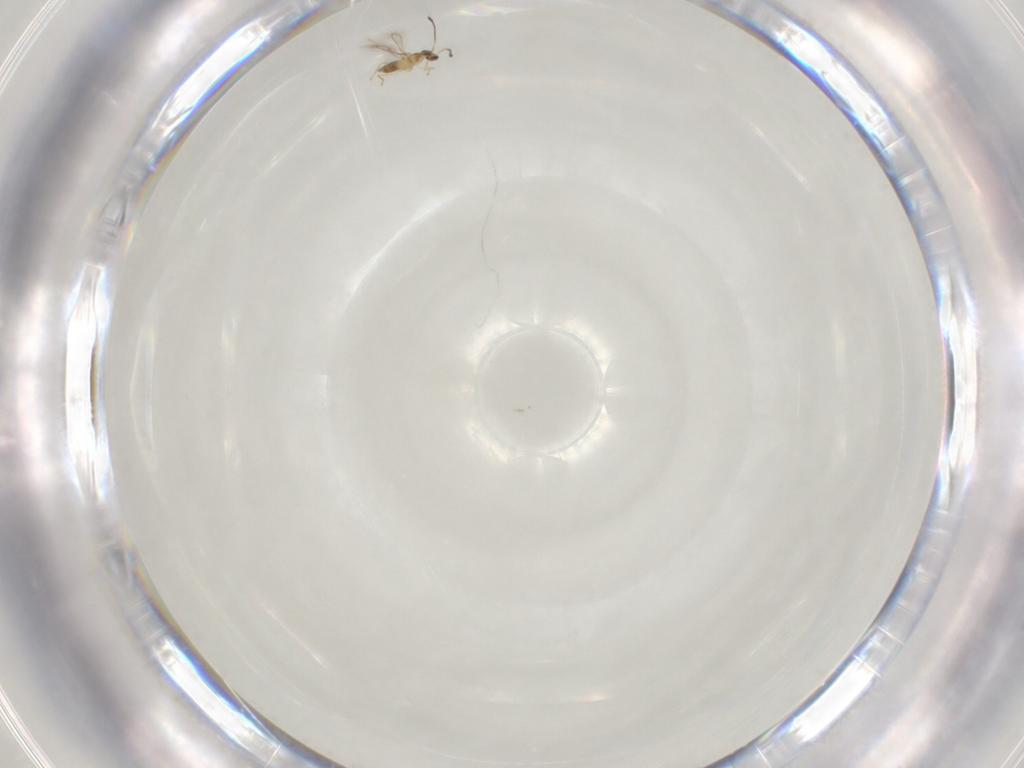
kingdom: Animalia
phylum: Arthropoda
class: Insecta
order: Hymenoptera
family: Mymaridae
